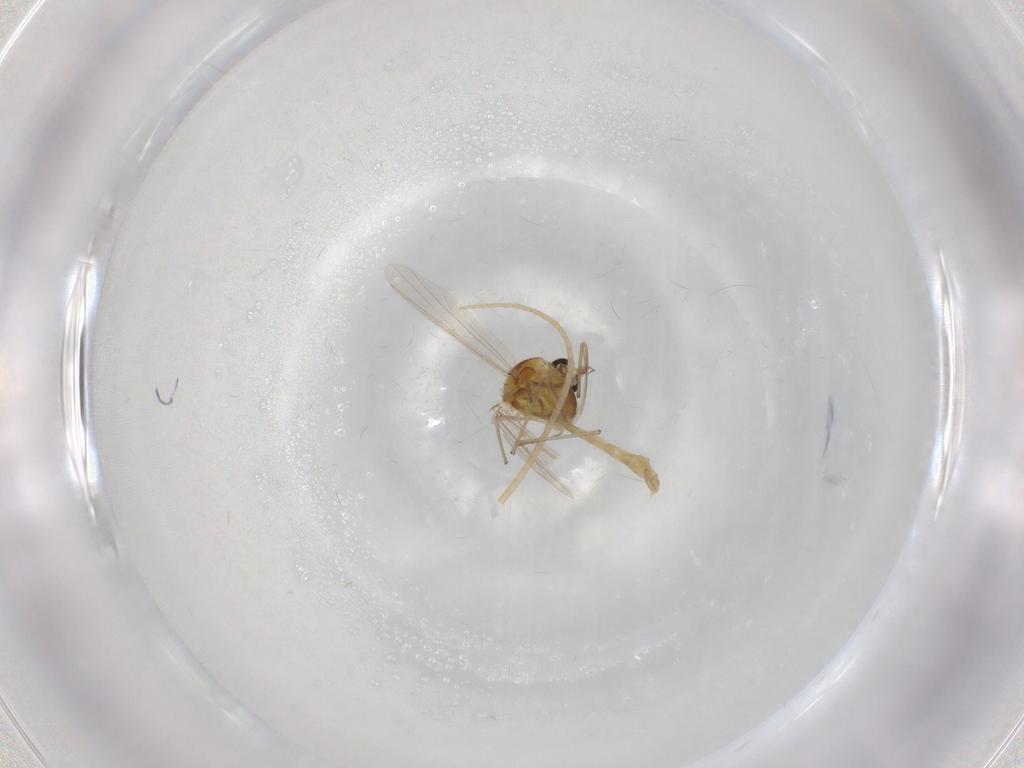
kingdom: Animalia
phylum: Arthropoda
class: Insecta
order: Diptera
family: Chironomidae
